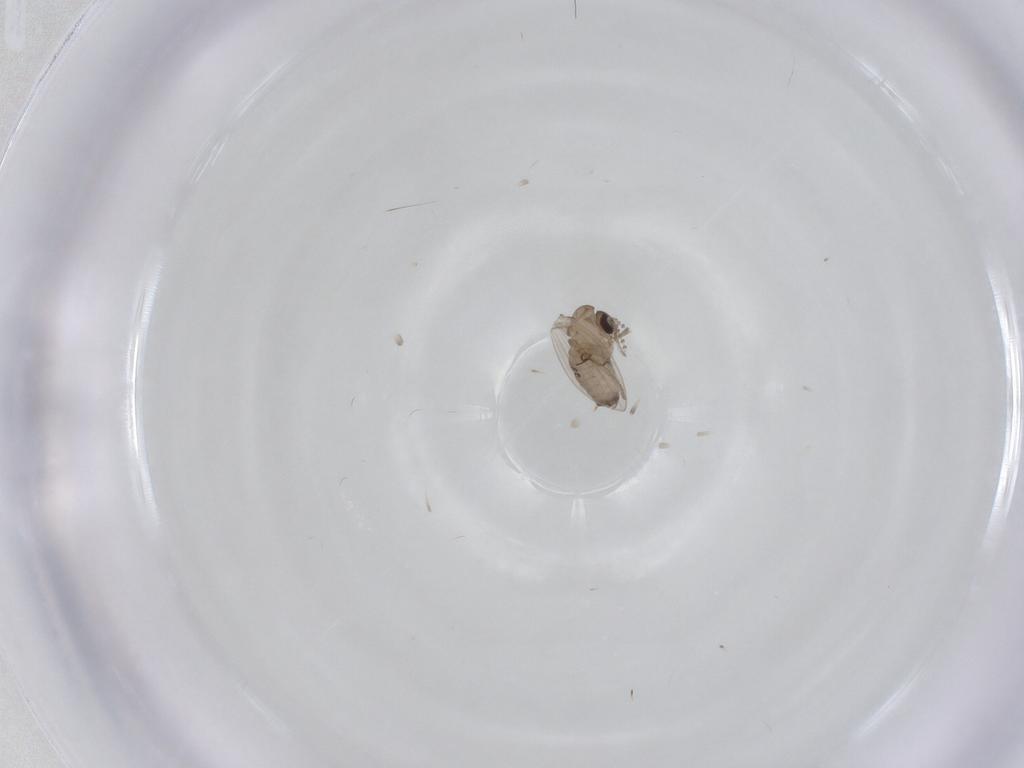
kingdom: Animalia
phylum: Arthropoda
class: Insecta
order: Diptera
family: Psychodidae
